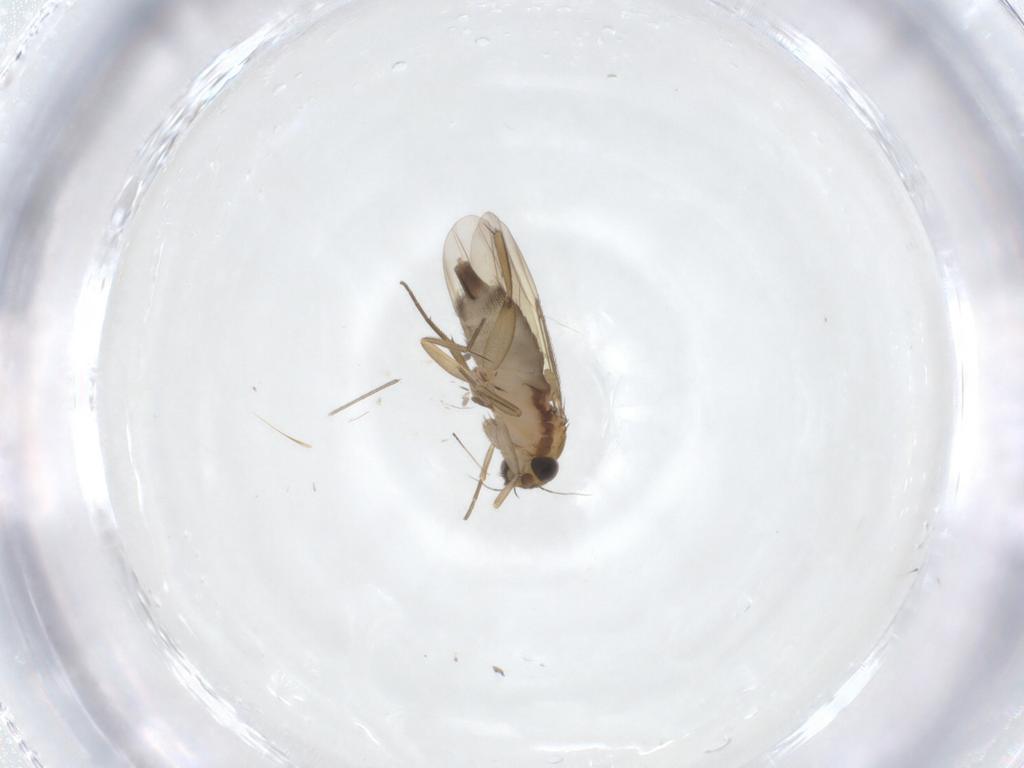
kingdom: Animalia
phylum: Arthropoda
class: Insecta
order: Diptera
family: Phoridae
